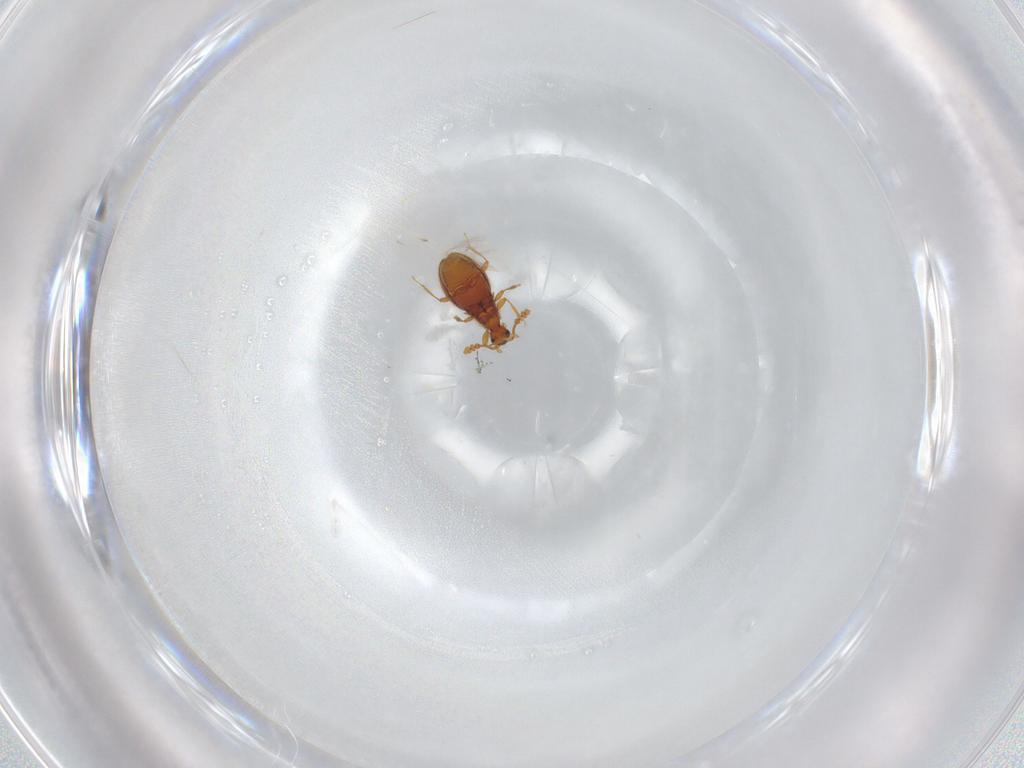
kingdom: Animalia
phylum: Arthropoda
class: Insecta
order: Coleoptera
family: Staphylinidae
